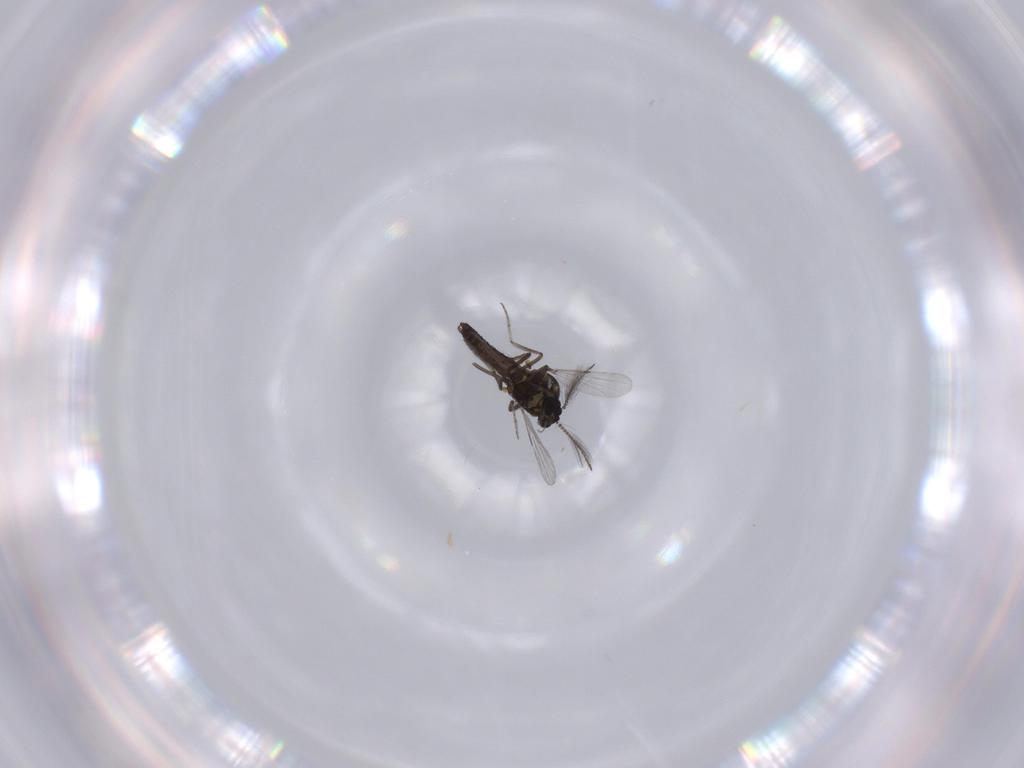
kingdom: Animalia
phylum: Arthropoda
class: Insecta
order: Diptera
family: Ceratopogonidae
